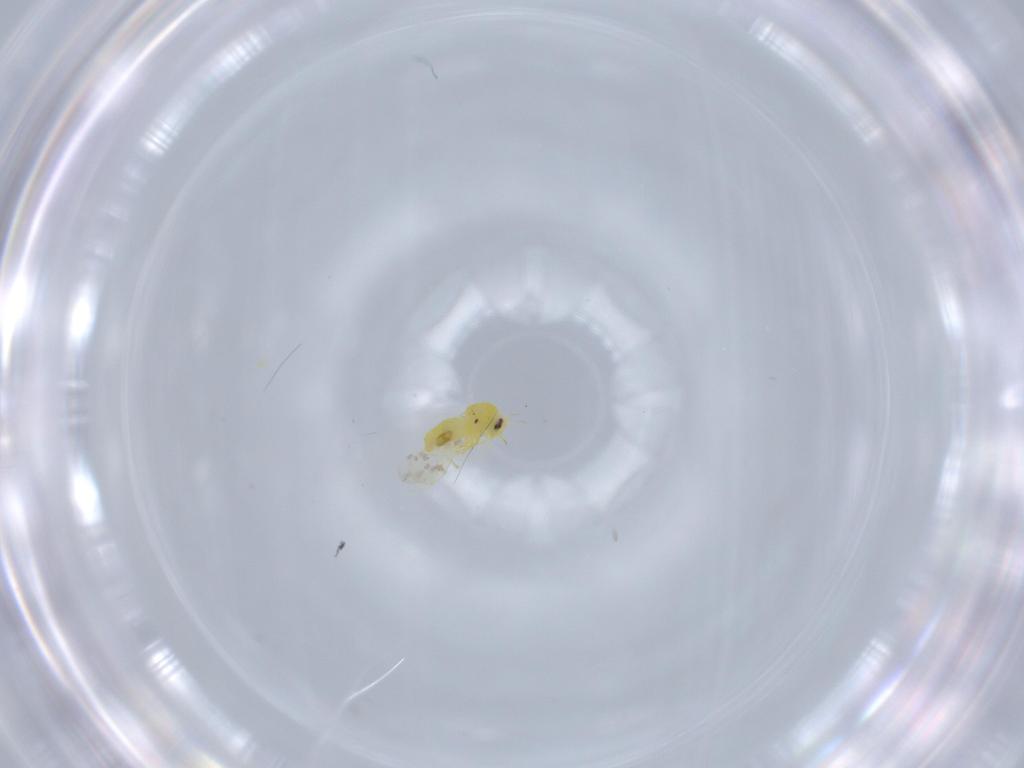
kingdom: Animalia
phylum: Arthropoda
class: Insecta
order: Hemiptera
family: Aleyrodidae
